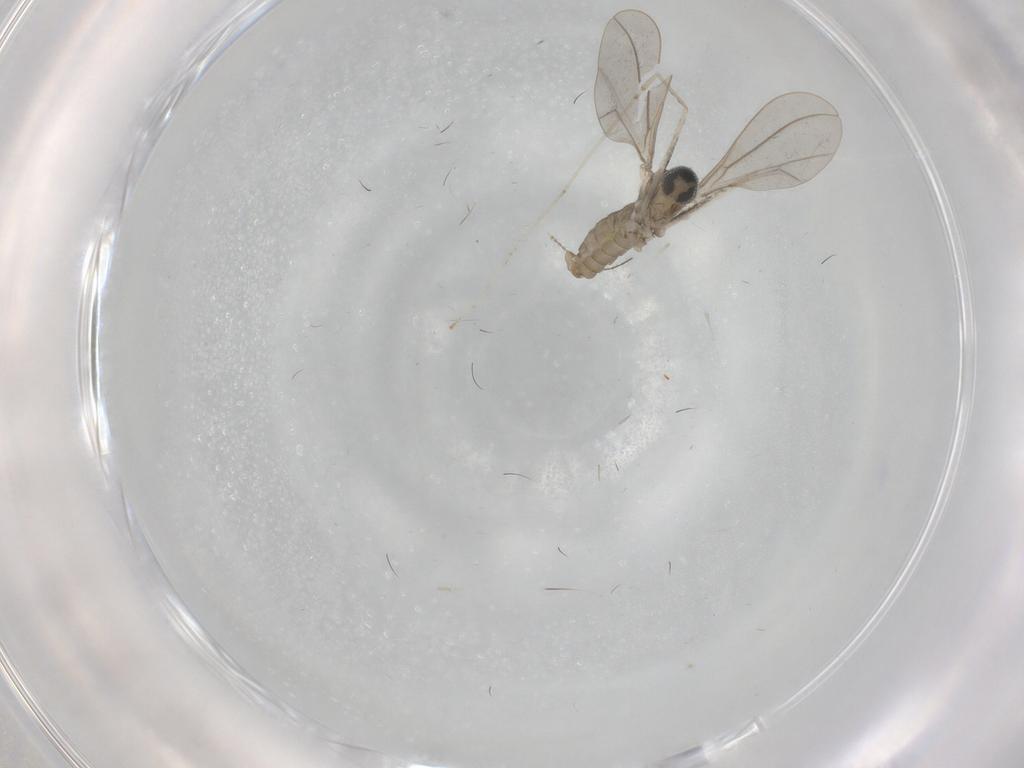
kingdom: Animalia
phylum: Arthropoda
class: Insecta
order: Diptera
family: Cecidomyiidae
